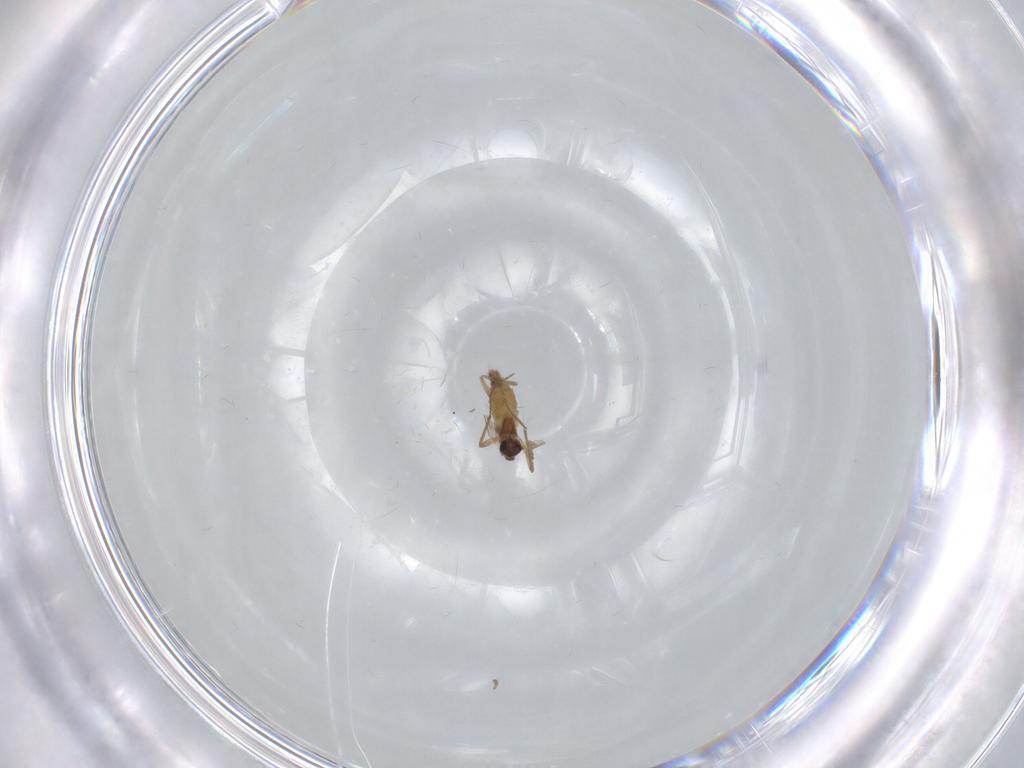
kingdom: Animalia
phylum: Arthropoda
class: Insecta
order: Diptera
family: Chironomidae
